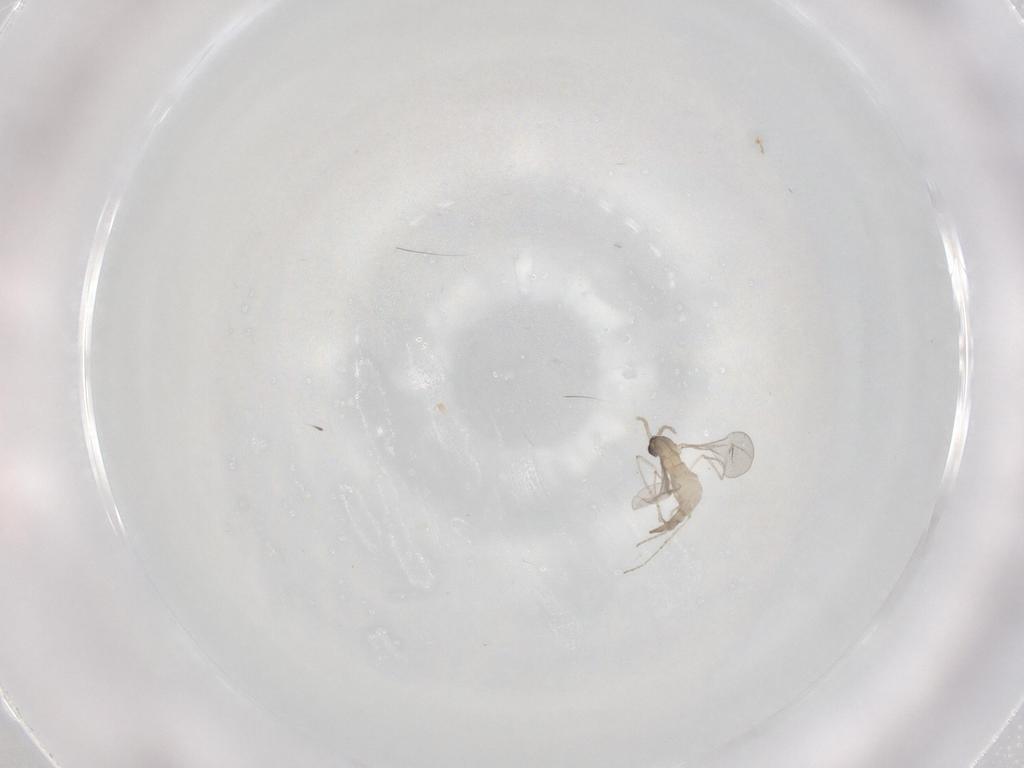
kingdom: Animalia
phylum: Arthropoda
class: Insecta
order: Diptera
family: Cecidomyiidae
